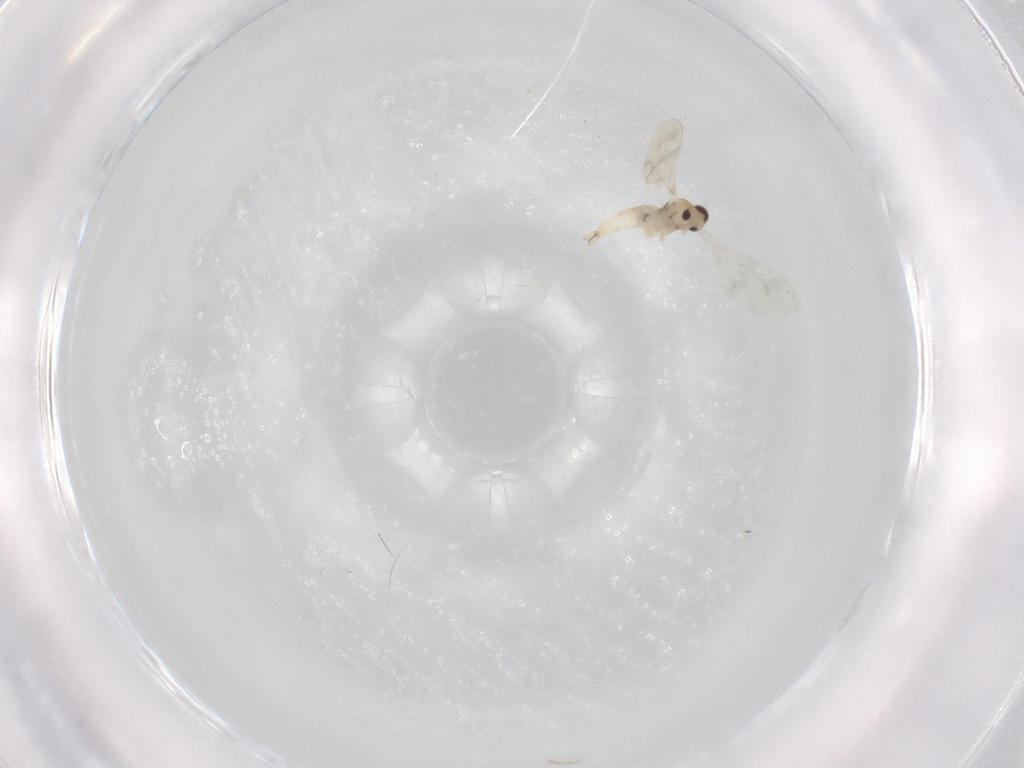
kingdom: Animalia
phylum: Arthropoda
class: Insecta
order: Diptera
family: Cecidomyiidae
